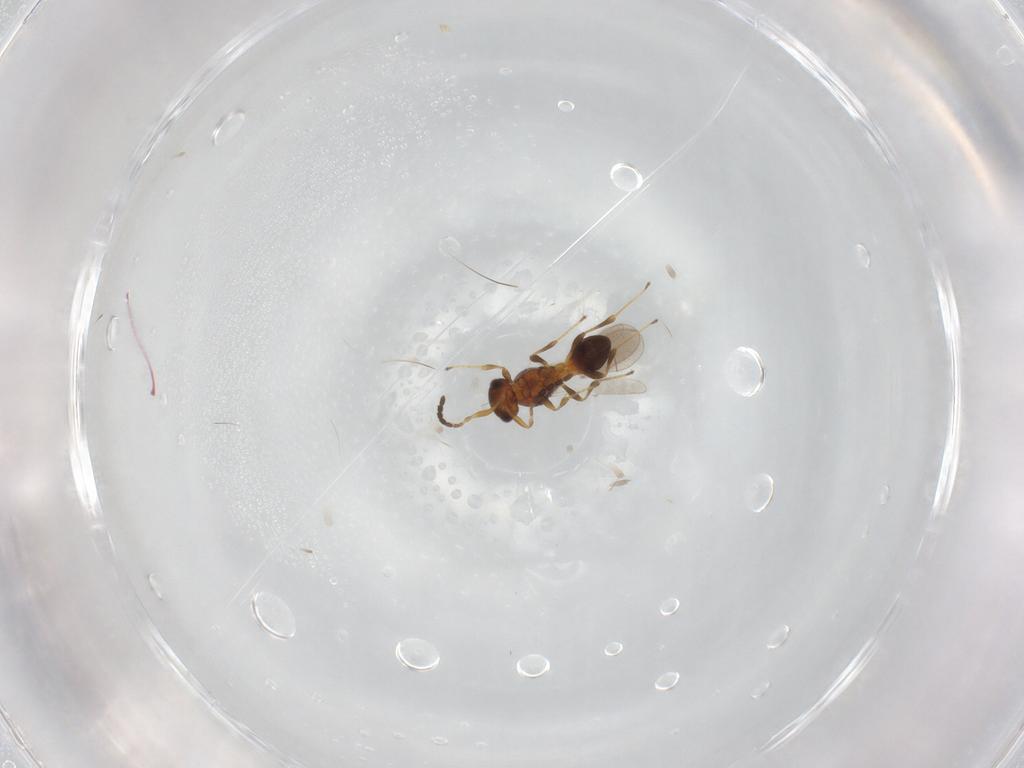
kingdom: Animalia
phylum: Arthropoda
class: Insecta
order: Hymenoptera
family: Platygastridae
